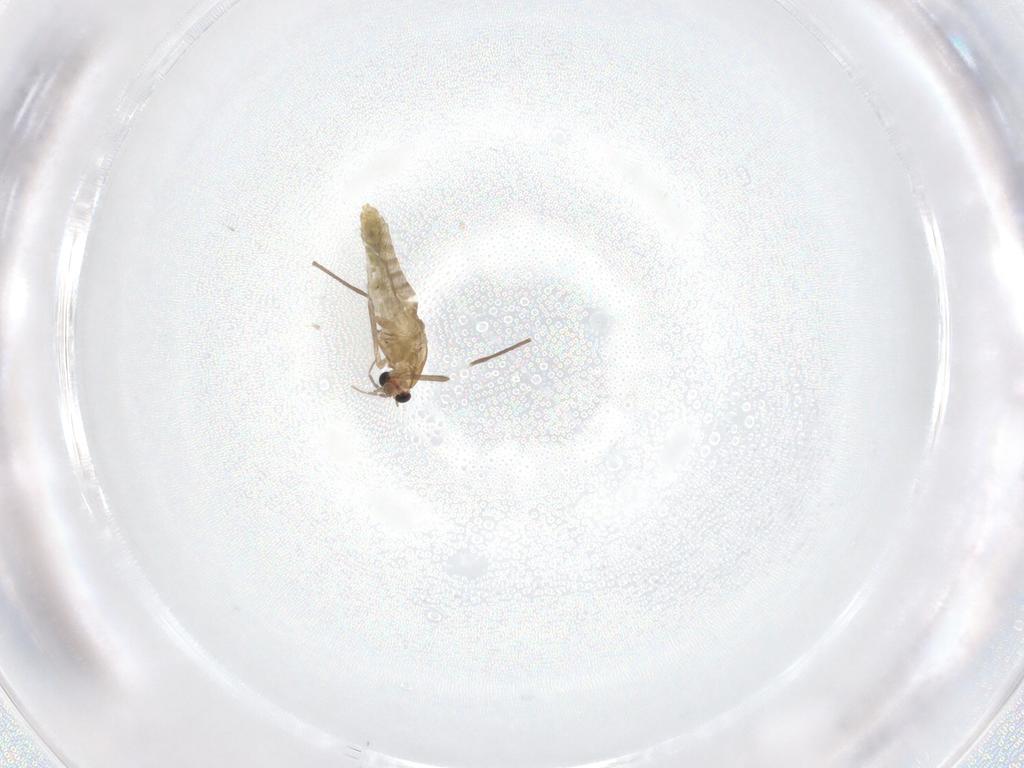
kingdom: Animalia
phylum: Arthropoda
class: Insecta
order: Diptera
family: Chironomidae
